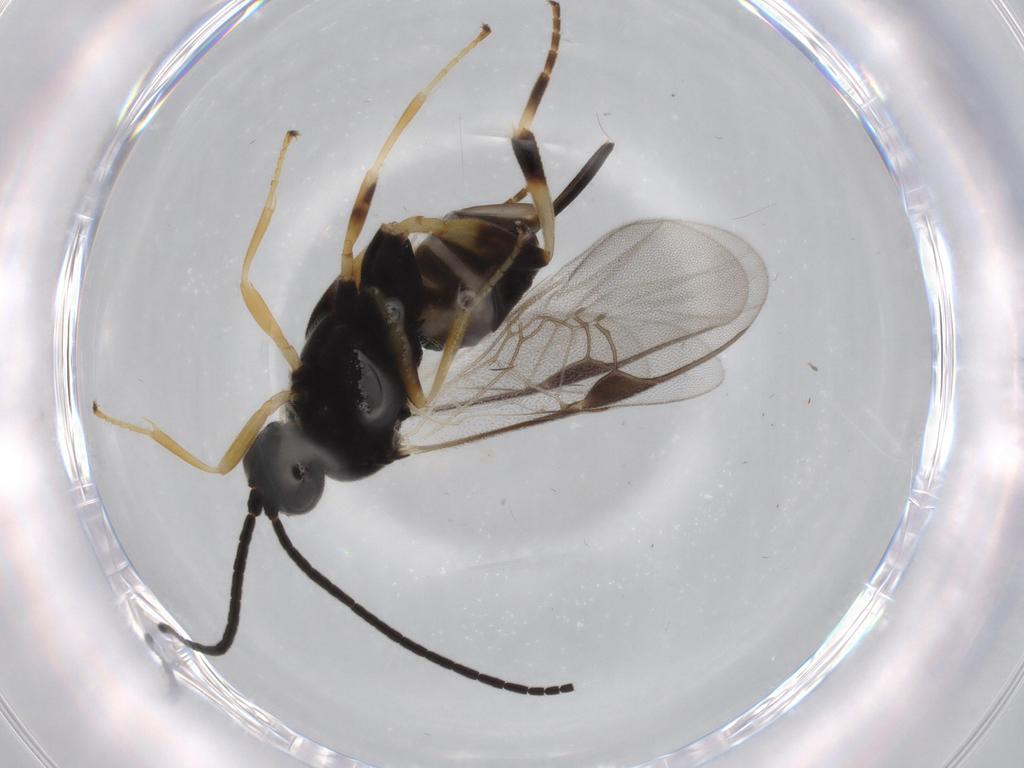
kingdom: Animalia
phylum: Arthropoda
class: Insecta
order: Hymenoptera
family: Braconidae
